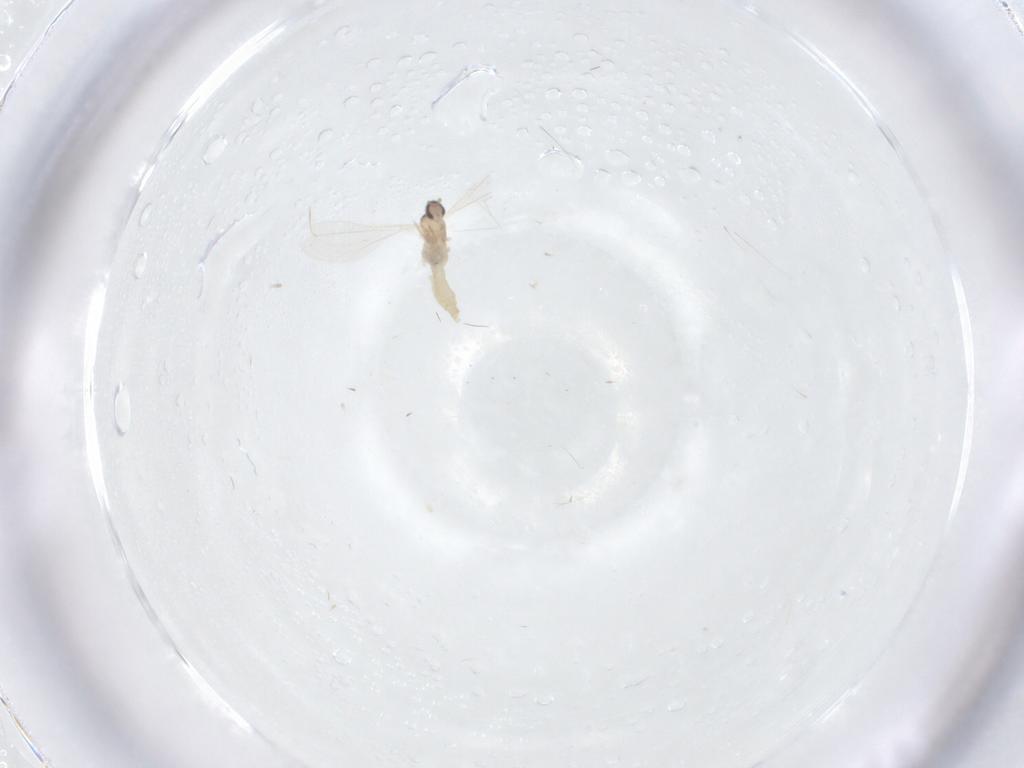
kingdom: Animalia
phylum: Arthropoda
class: Insecta
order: Diptera
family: Cecidomyiidae
